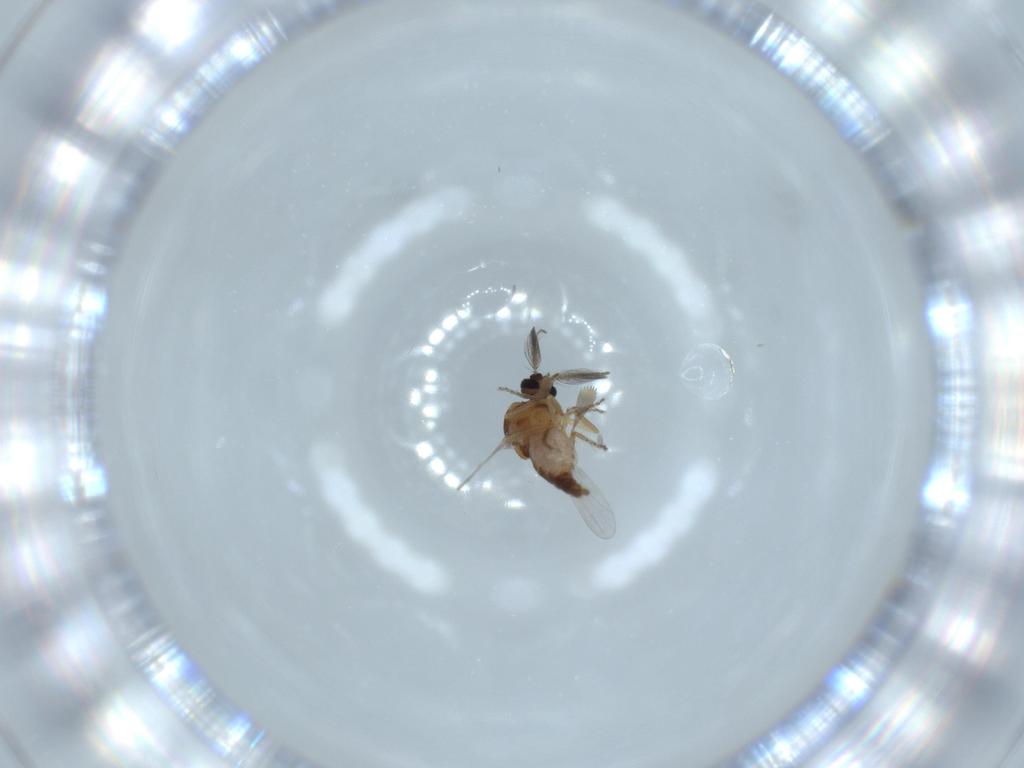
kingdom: Animalia
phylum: Arthropoda
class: Insecta
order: Diptera
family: Ceratopogonidae
